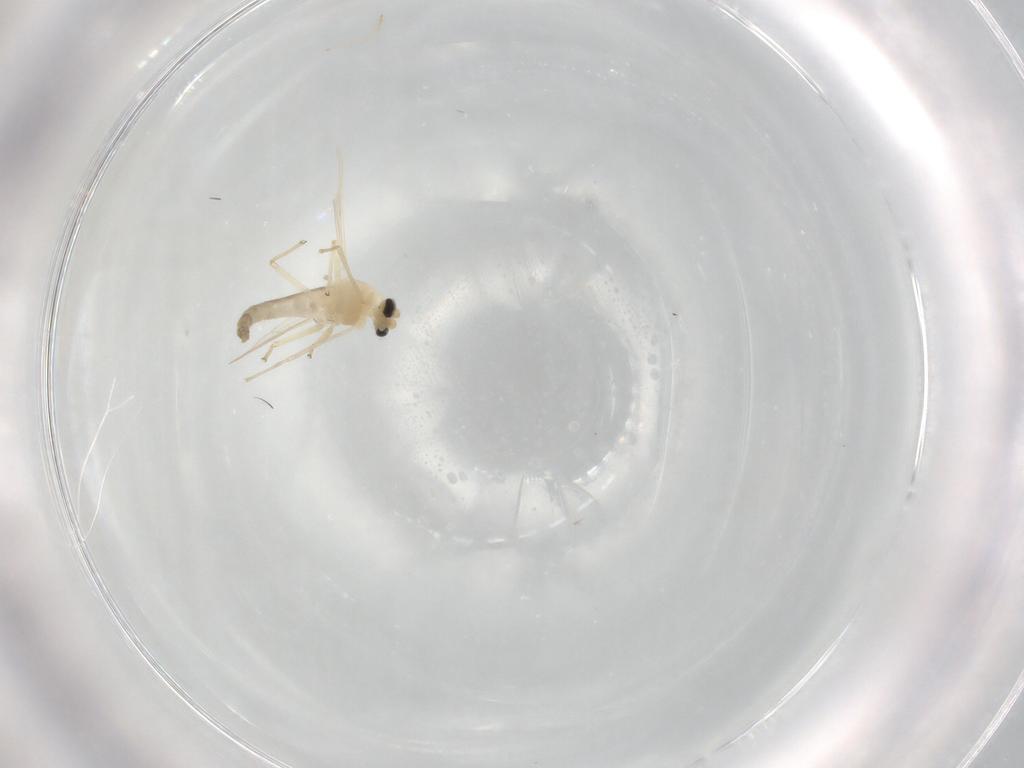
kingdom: Animalia
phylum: Arthropoda
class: Insecta
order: Diptera
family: Chironomidae
